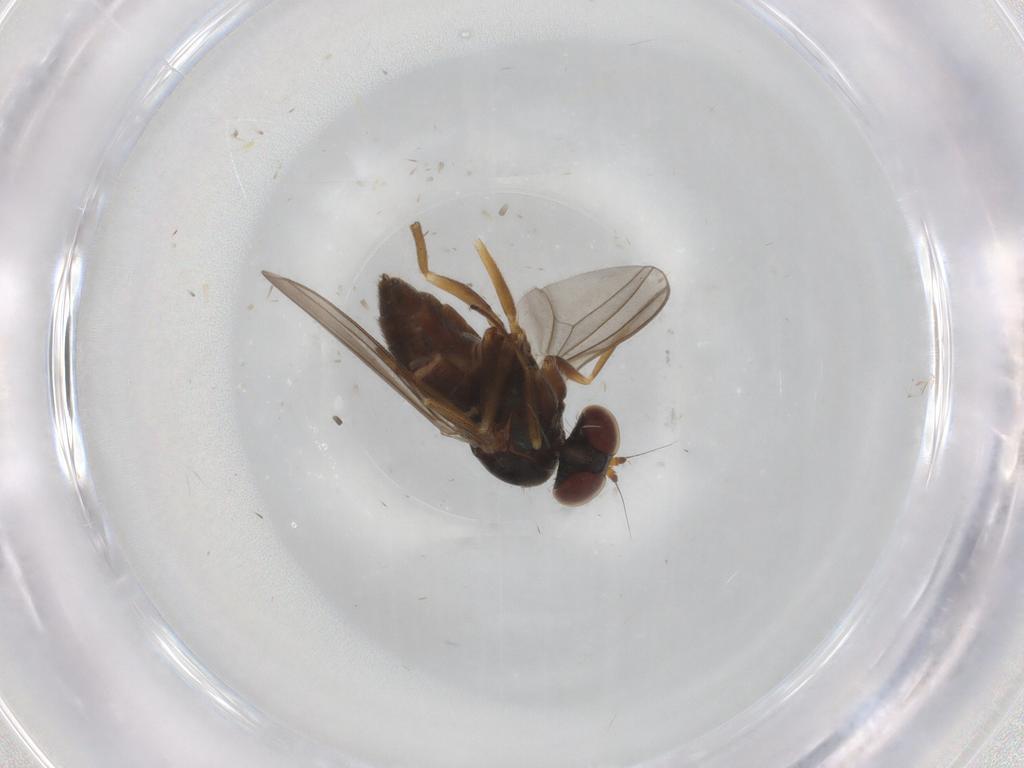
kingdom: Animalia
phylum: Arthropoda
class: Insecta
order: Diptera
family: Dolichopodidae
